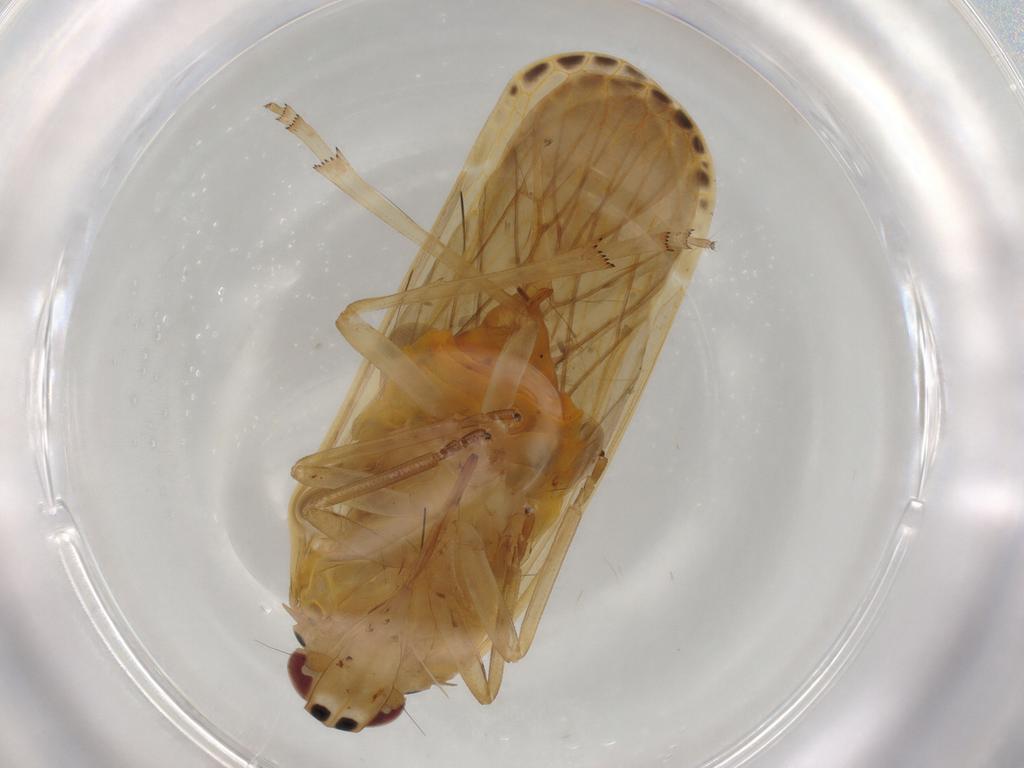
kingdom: Animalia
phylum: Arthropoda
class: Insecta
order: Hemiptera
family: Achilidae
